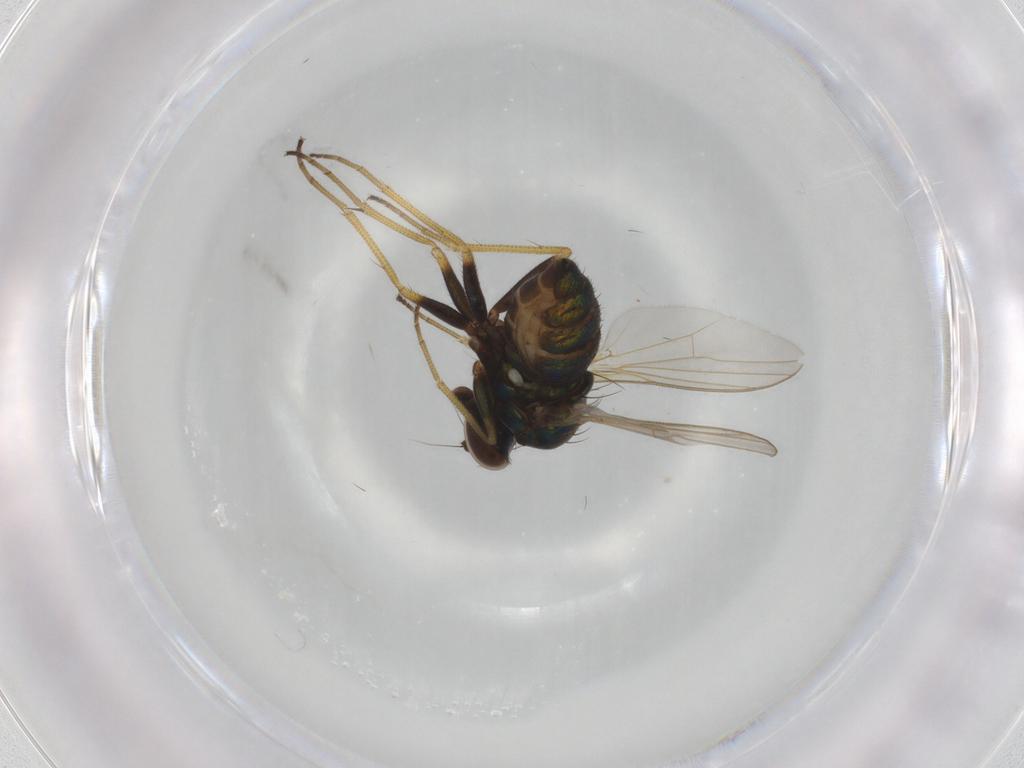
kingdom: Animalia
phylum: Arthropoda
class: Insecta
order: Diptera
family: Dolichopodidae
